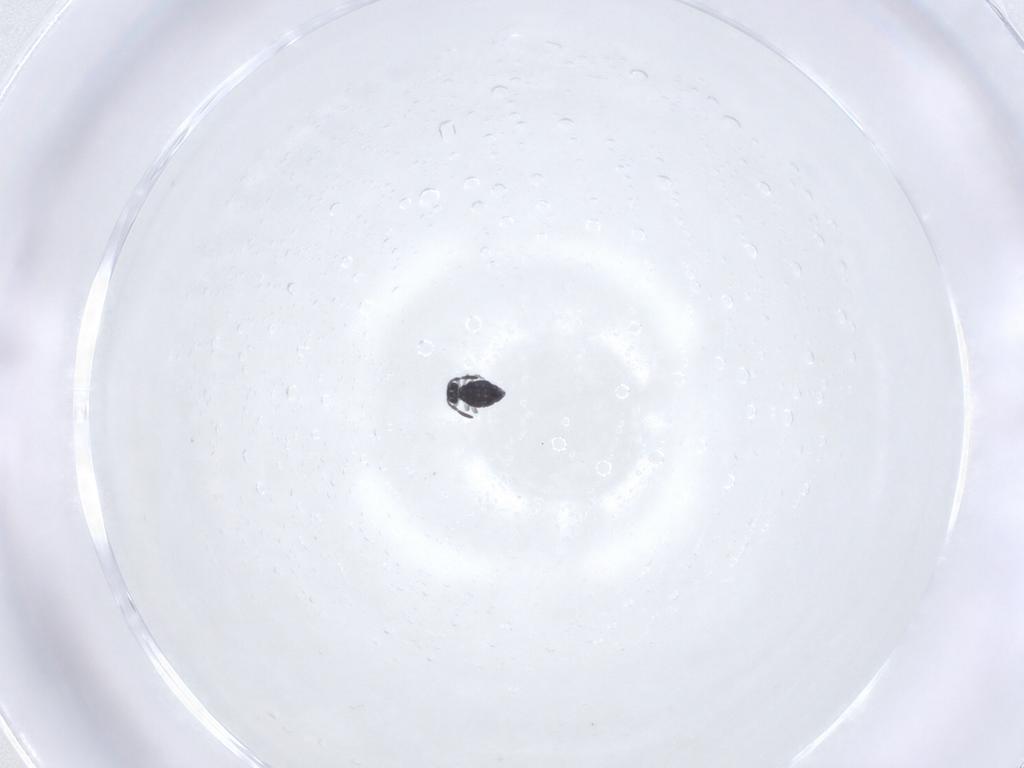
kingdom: Animalia
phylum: Arthropoda
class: Collembola
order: Symphypleona
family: Katiannidae
